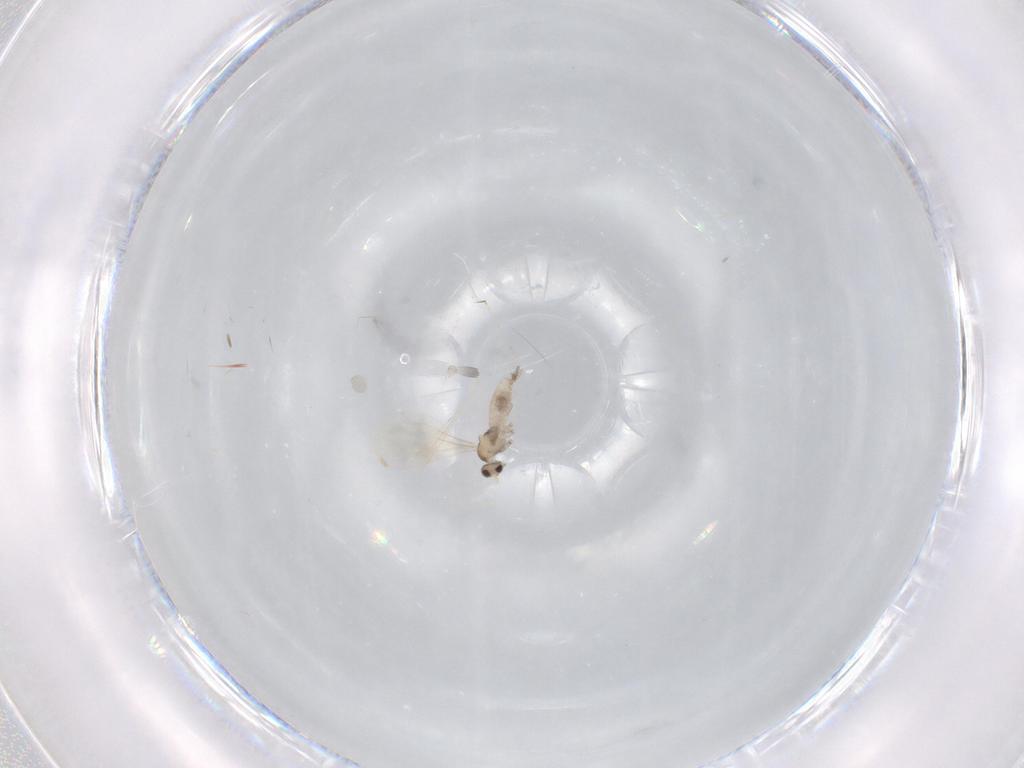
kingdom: Animalia
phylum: Arthropoda
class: Insecta
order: Diptera
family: Cecidomyiidae
